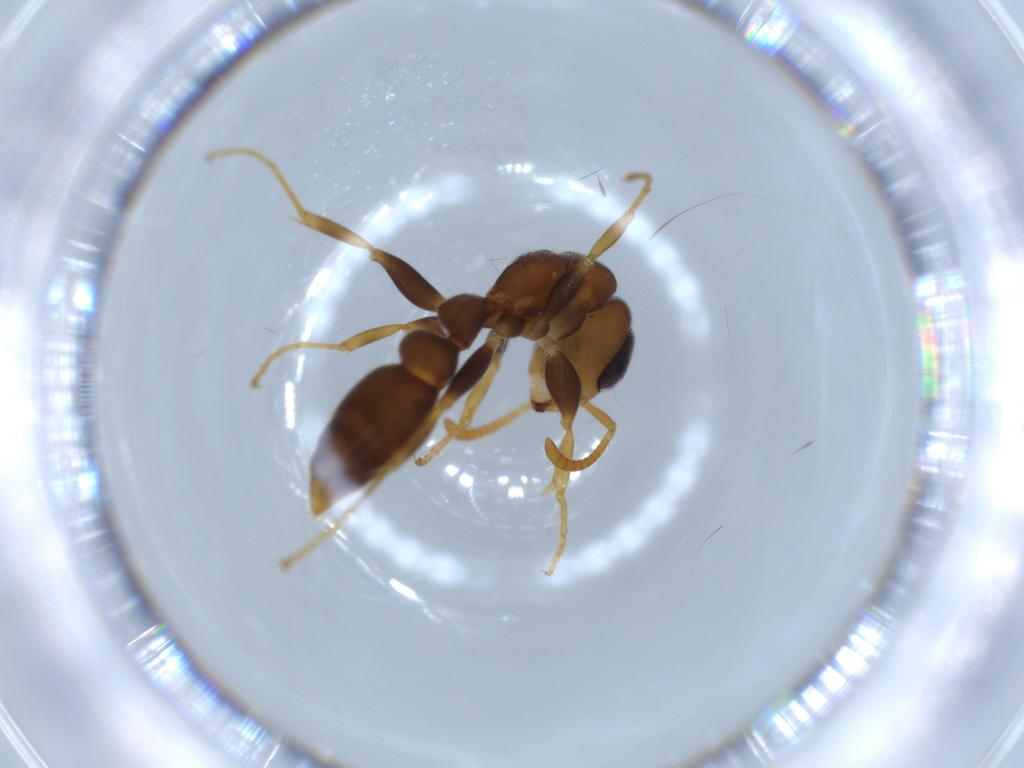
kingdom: Animalia
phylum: Arthropoda
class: Insecta
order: Hymenoptera
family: Formicidae
